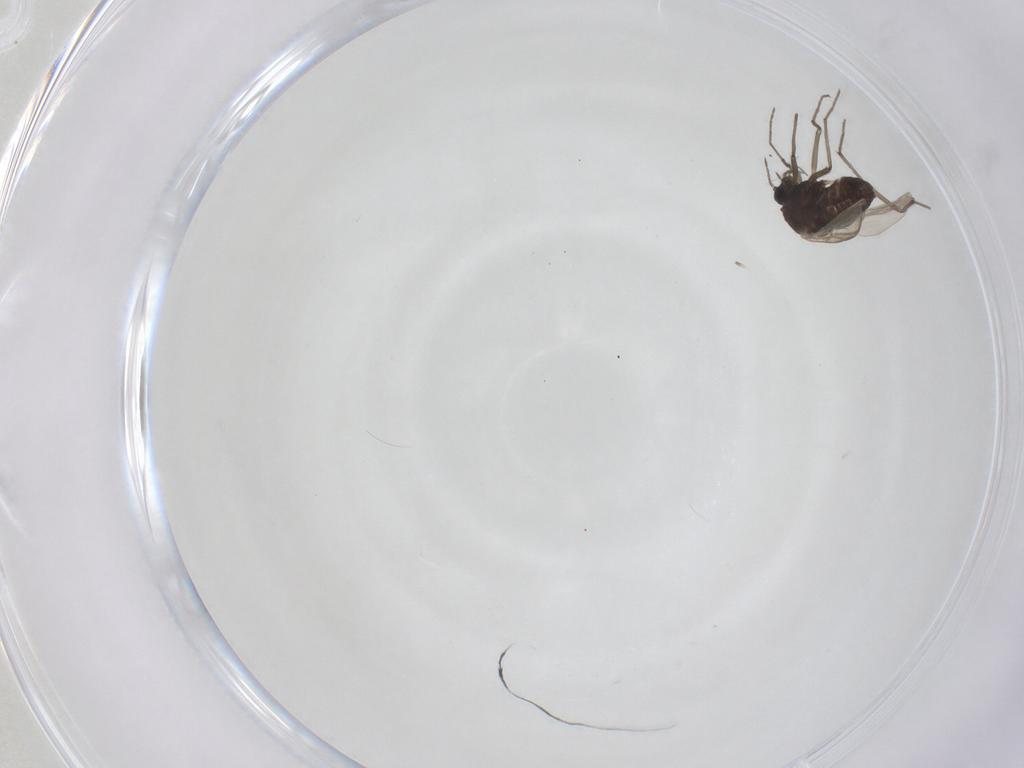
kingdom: Animalia
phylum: Arthropoda
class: Insecta
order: Diptera
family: Chironomidae
